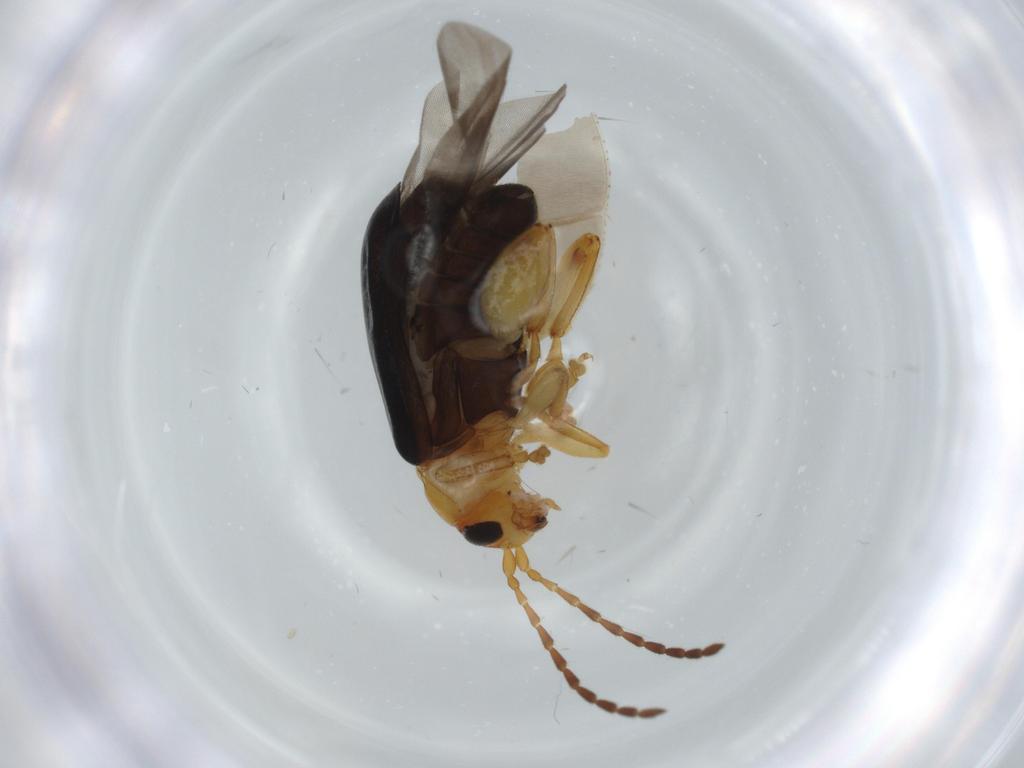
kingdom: Animalia
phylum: Arthropoda
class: Insecta
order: Coleoptera
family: Chrysomelidae
